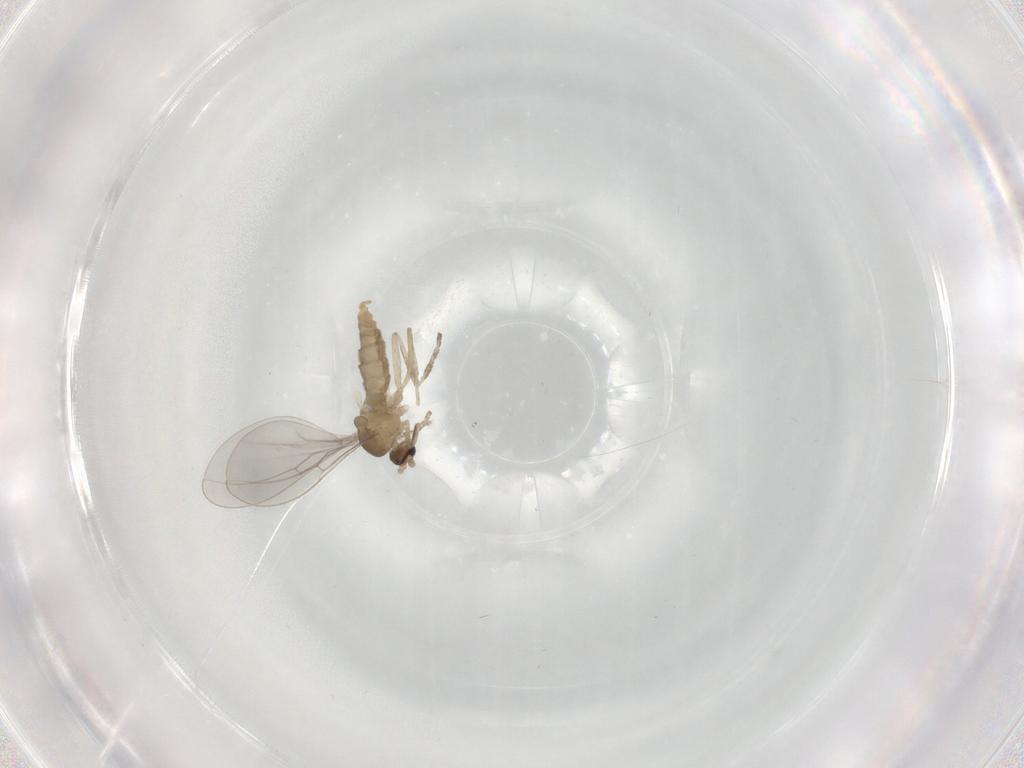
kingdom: Animalia
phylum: Arthropoda
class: Insecta
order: Diptera
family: Cecidomyiidae
